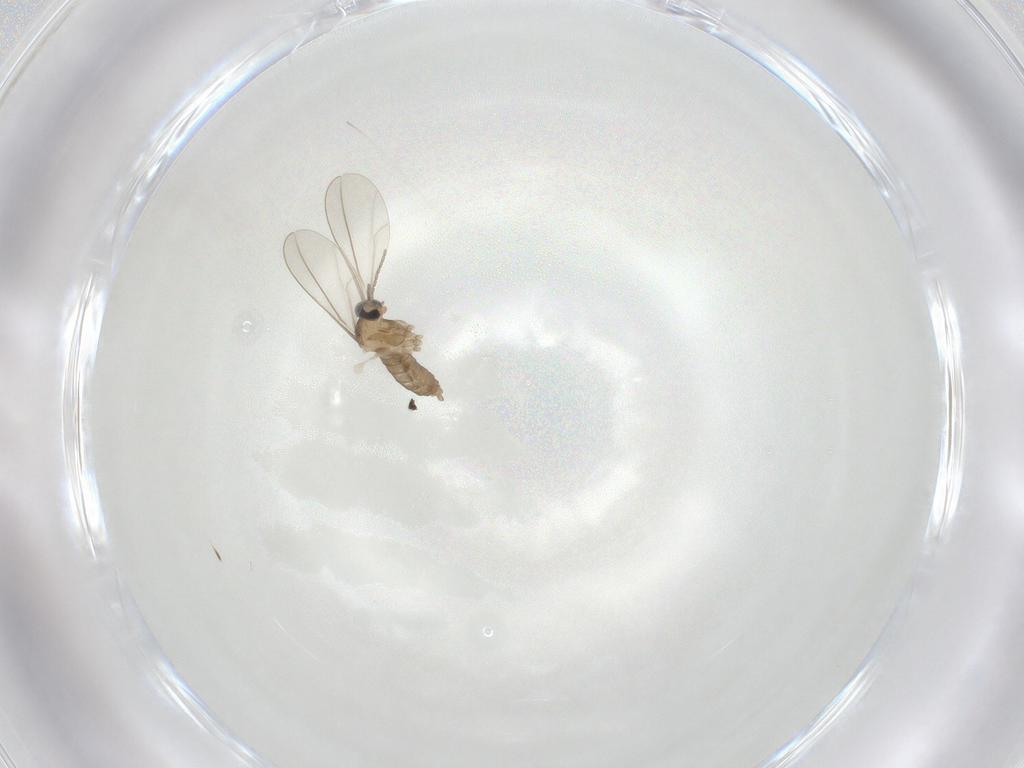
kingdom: Animalia
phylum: Arthropoda
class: Insecta
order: Diptera
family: Cecidomyiidae
